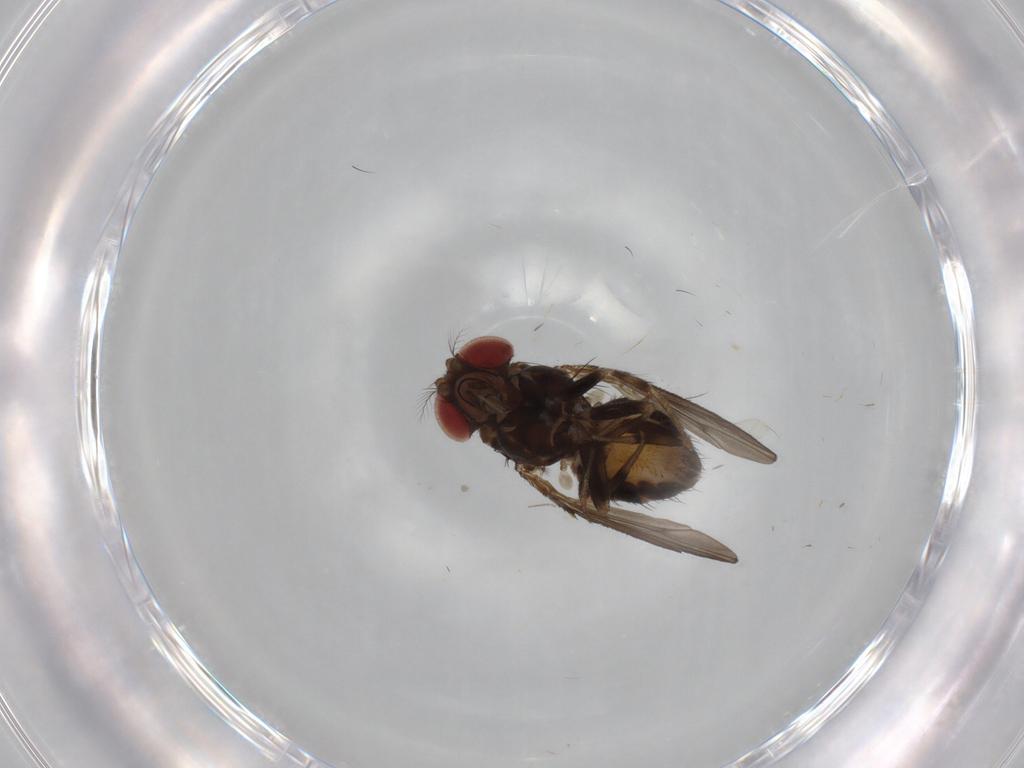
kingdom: Animalia
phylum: Arthropoda
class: Insecta
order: Diptera
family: Drosophilidae
